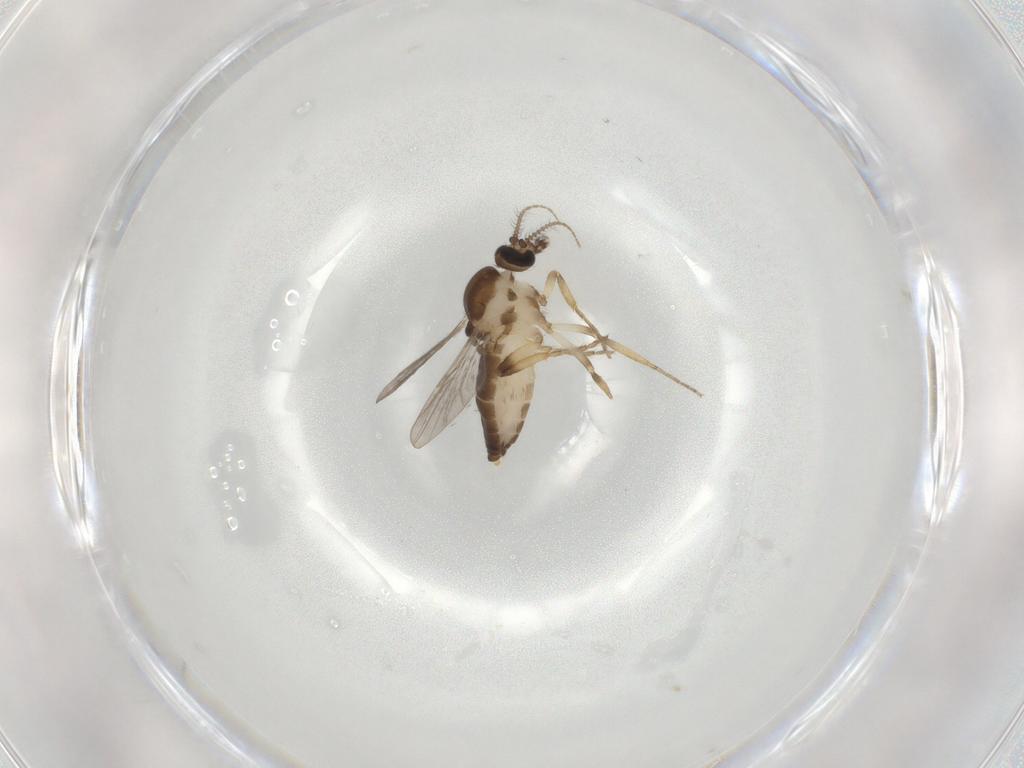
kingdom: Animalia
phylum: Arthropoda
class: Insecta
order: Diptera
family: Ceratopogonidae
